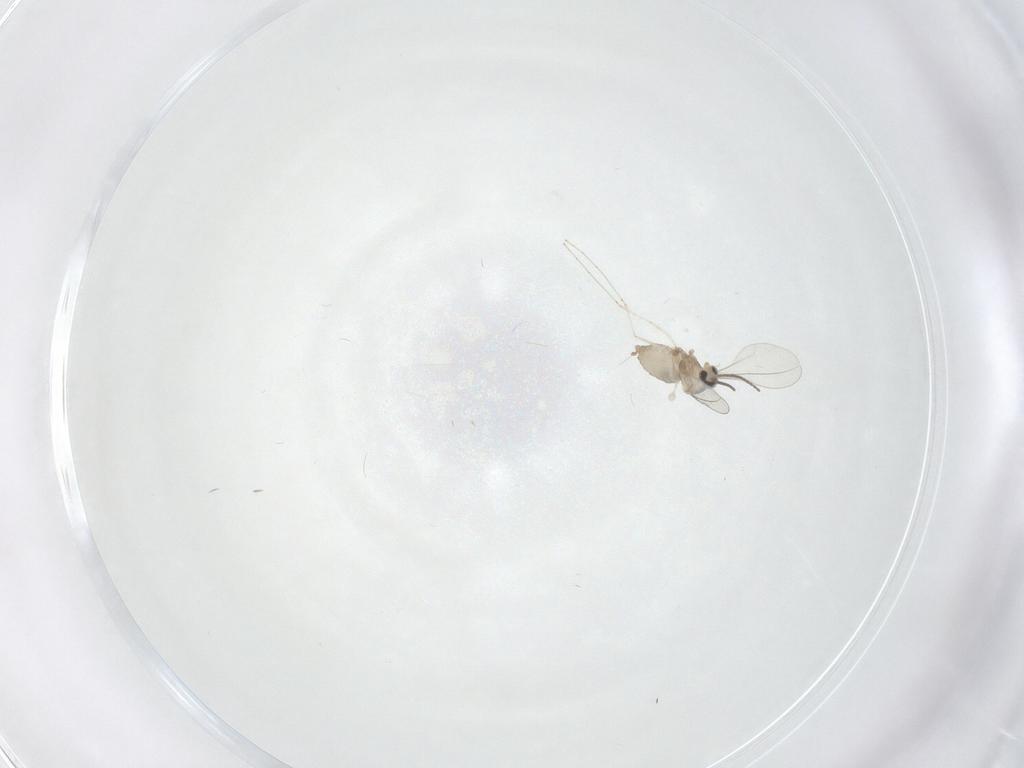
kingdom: Animalia
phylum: Arthropoda
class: Insecta
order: Diptera
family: Cecidomyiidae
